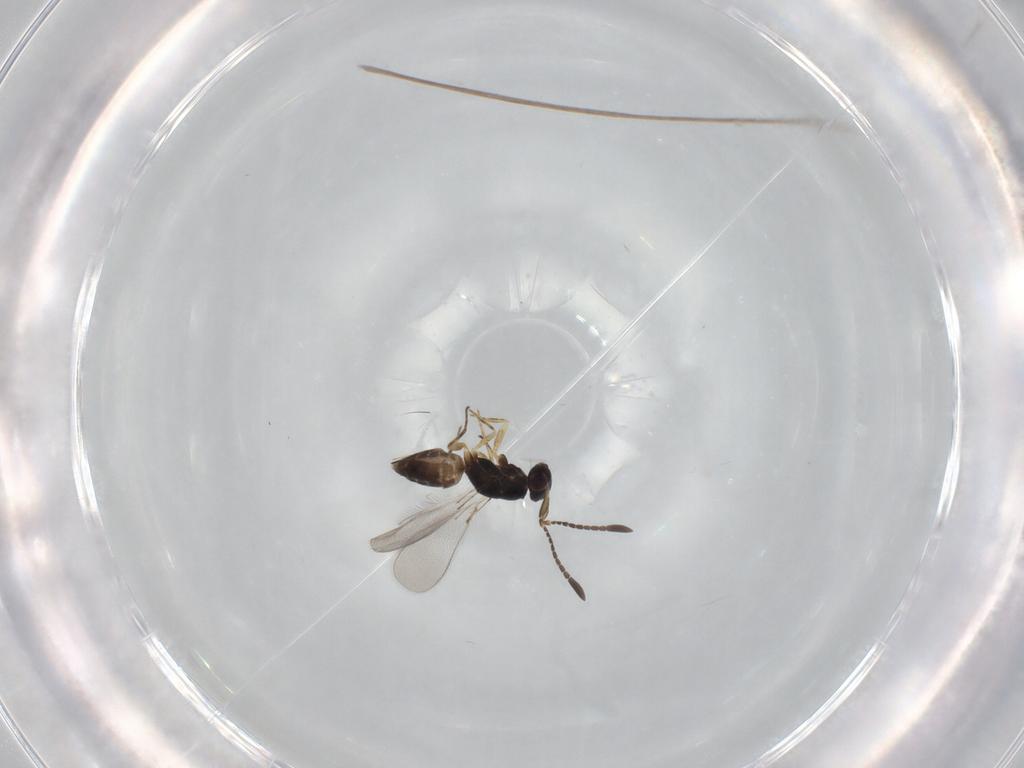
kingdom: Animalia
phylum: Arthropoda
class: Insecta
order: Hymenoptera
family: Mymaridae
